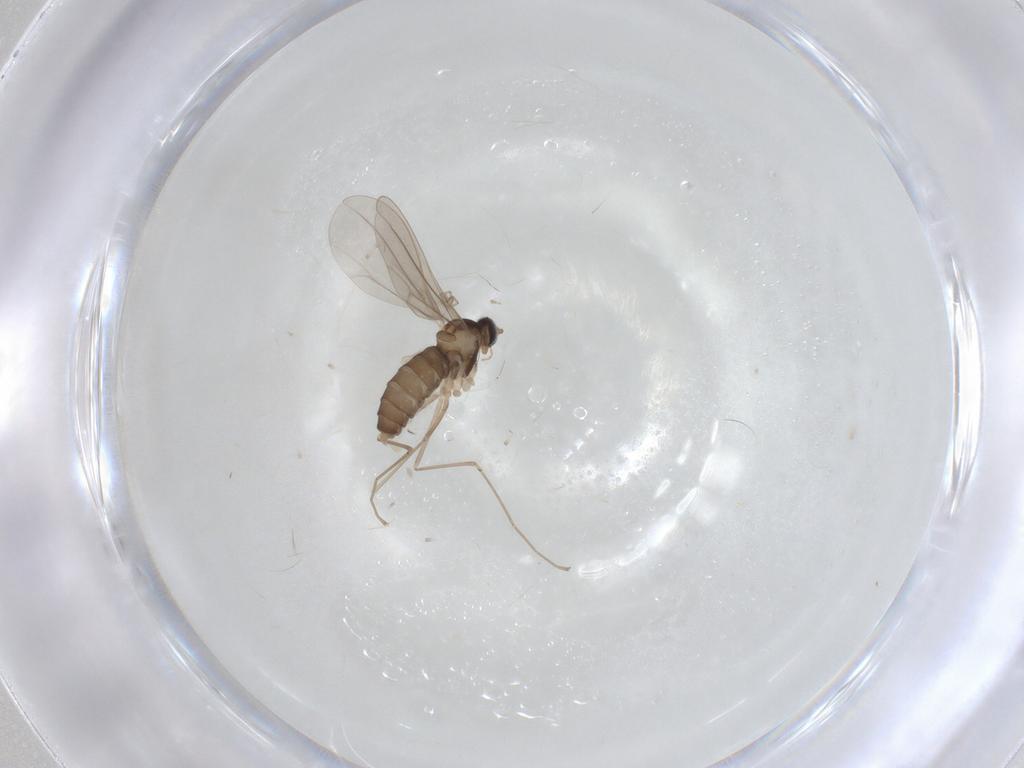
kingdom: Animalia
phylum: Arthropoda
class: Insecta
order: Diptera
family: Cecidomyiidae
